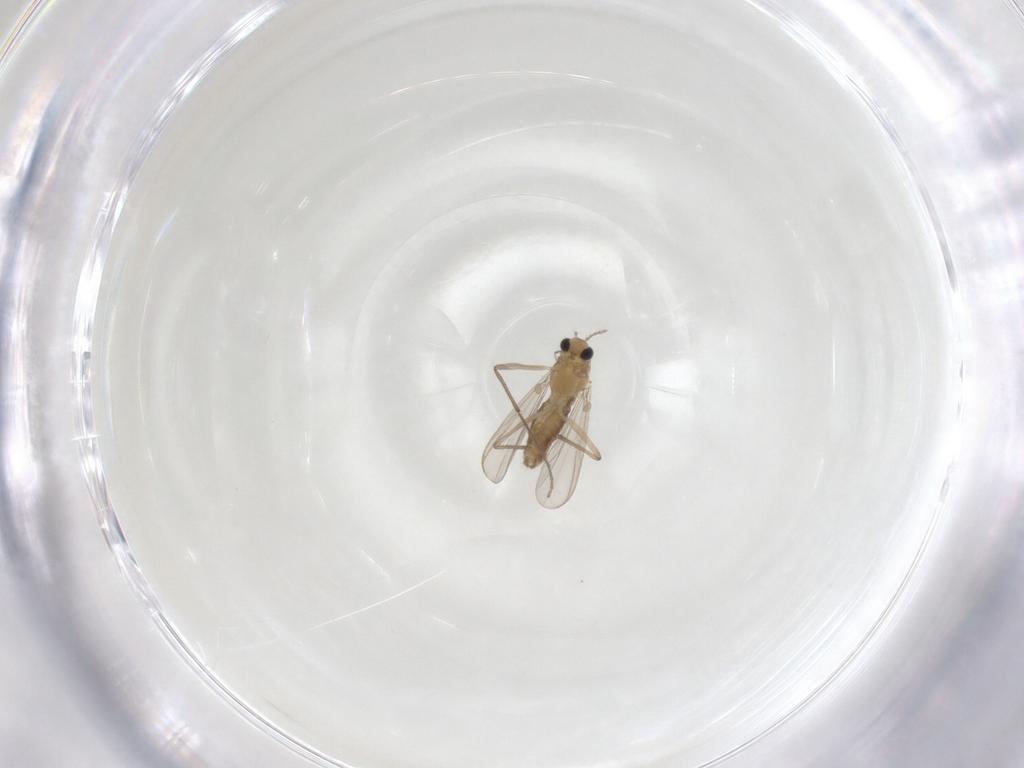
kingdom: Animalia
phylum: Arthropoda
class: Insecta
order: Diptera
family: Chironomidae
